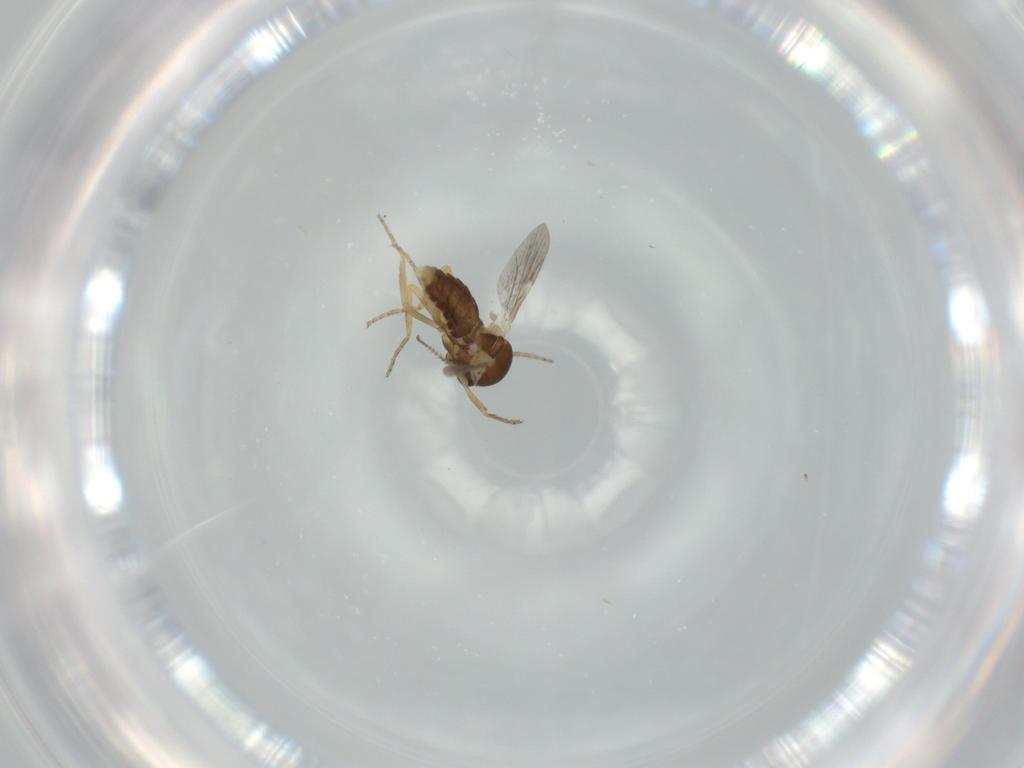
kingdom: Animalia
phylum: Arthropoda
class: Insecta
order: Diptera
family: Ceratopogonidae
